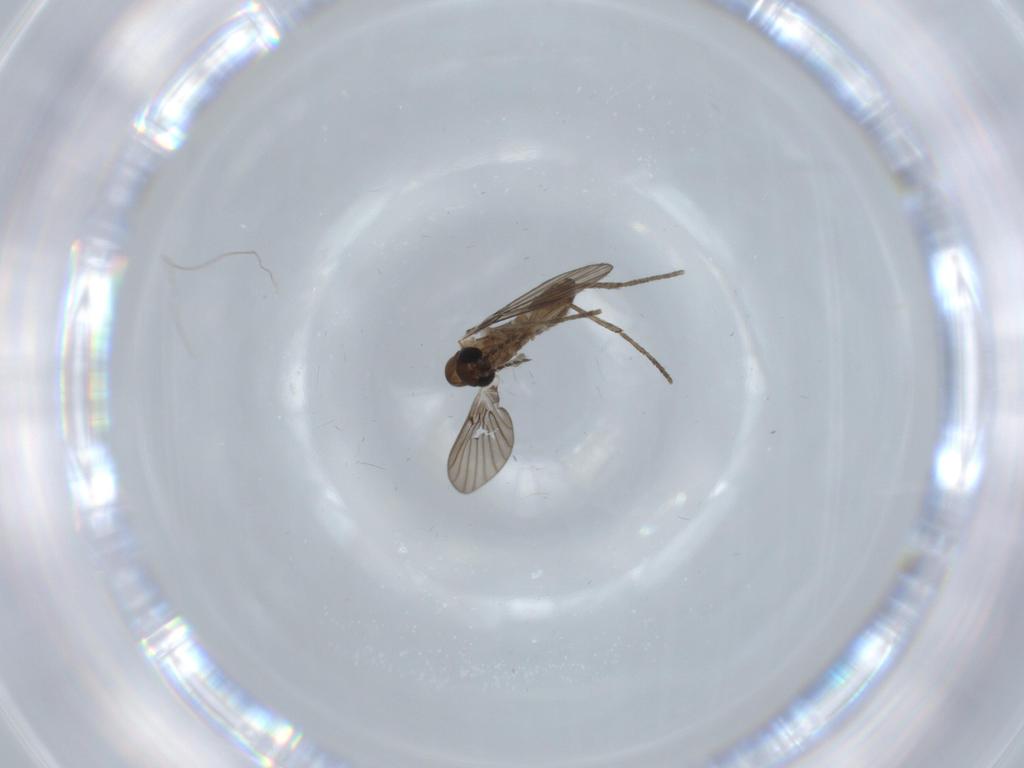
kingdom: Animalia
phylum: Arthropoda
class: Insecta
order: Diptera
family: Psychodidae
